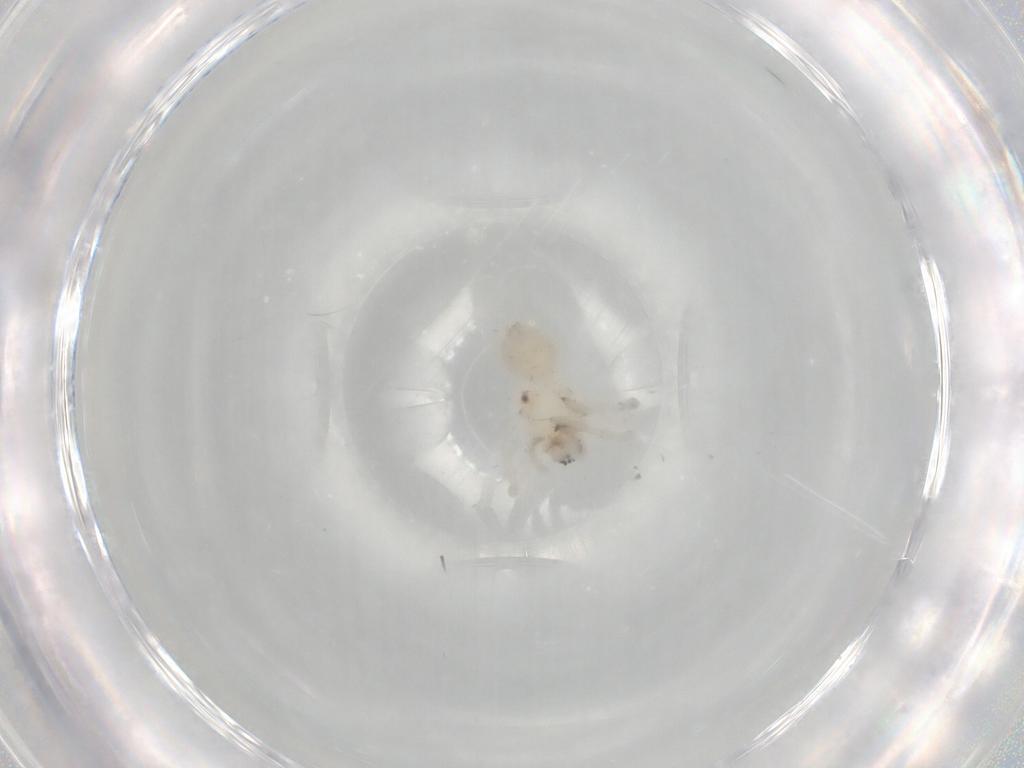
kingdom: Animalia
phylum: Arthropoda
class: Arachnida
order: Araneae
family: Anyphaenidae
